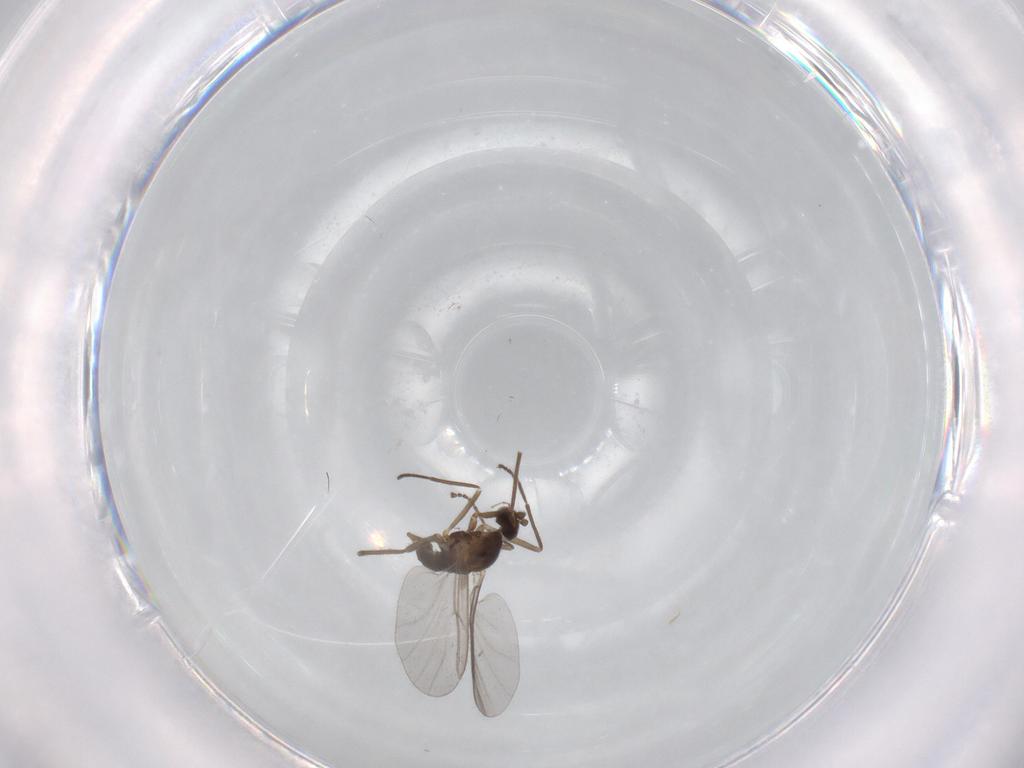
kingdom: Animalia
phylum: Arthropoda
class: Insecta
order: Diptera
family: Cecidomyiidae
